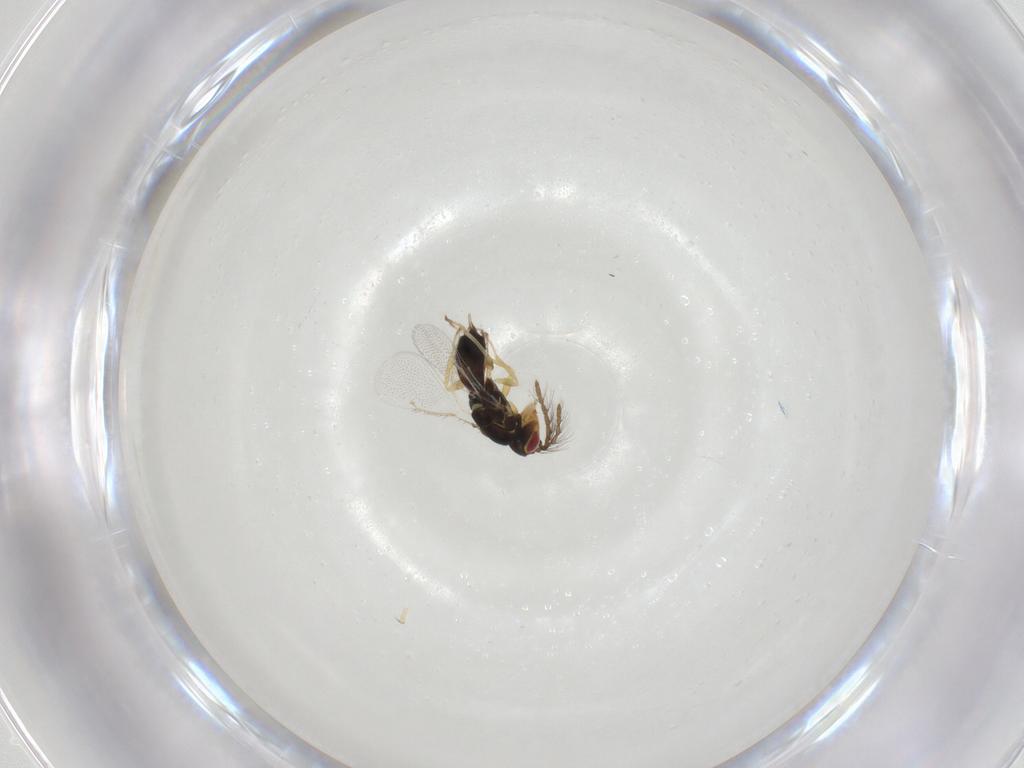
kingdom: Animalia
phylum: Arthropoda
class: Insecta
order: Hymenoptera
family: Eulophidae
